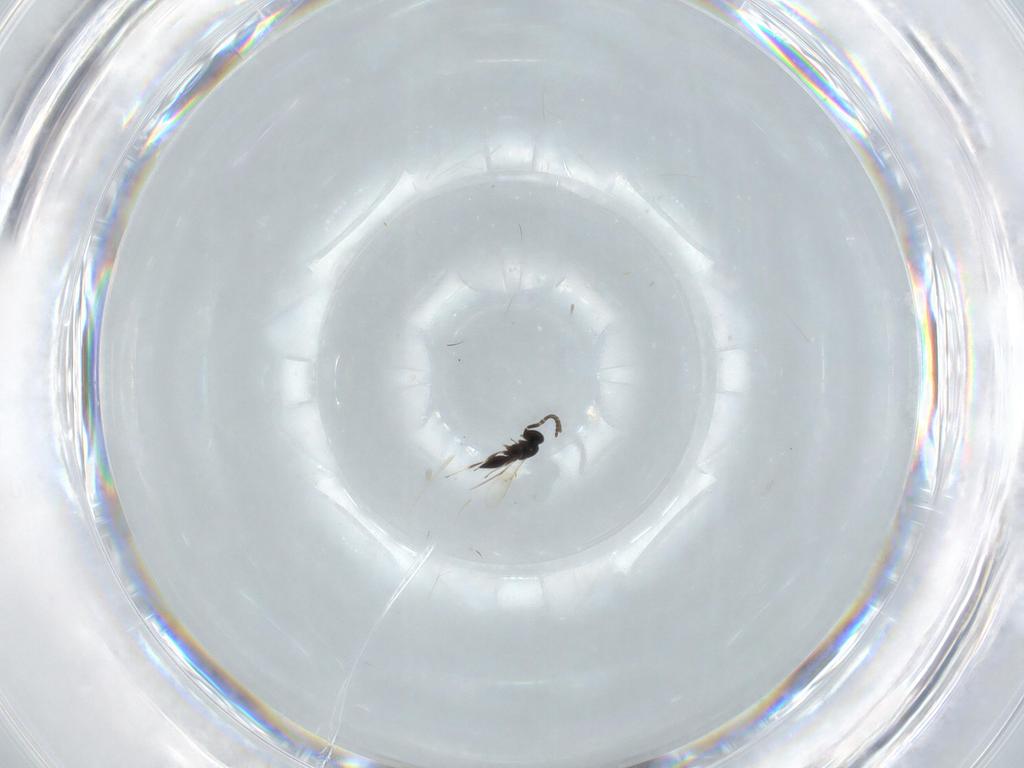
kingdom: Animalia
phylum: Arthropoda
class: Insecta
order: Hymenoptera
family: Scelionidae
